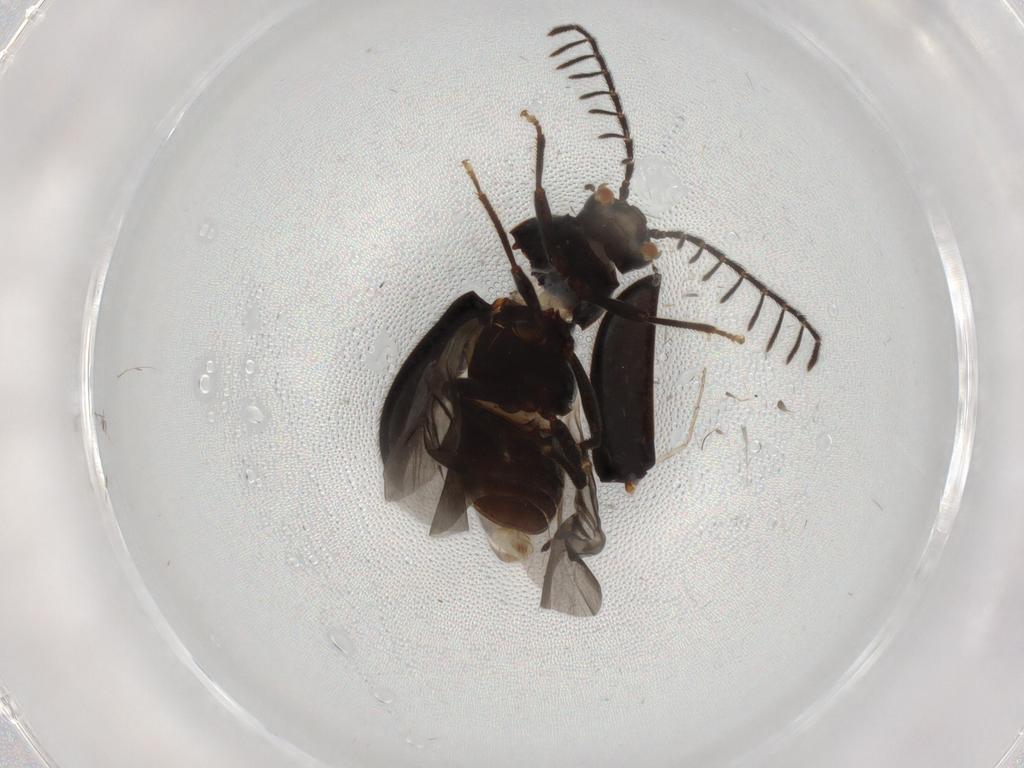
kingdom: Animalia
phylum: Arthropoda
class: Insecta
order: Coleoptera
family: Ptilodactylidae
